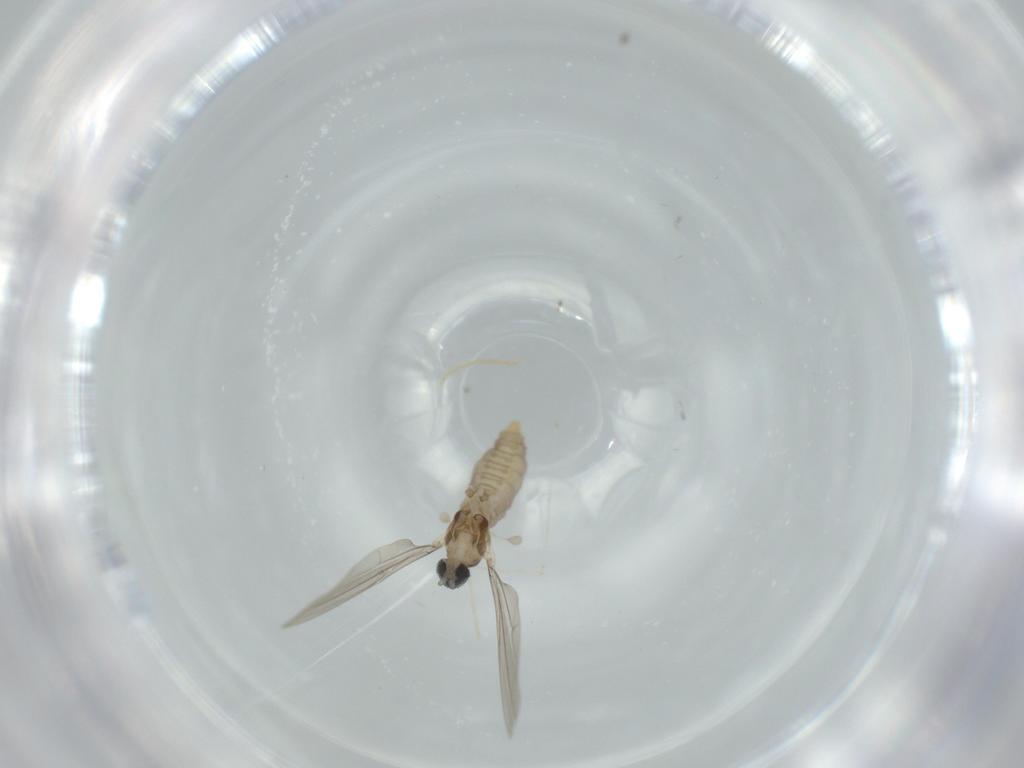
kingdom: Animalia
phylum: Arthropoda
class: Insecta
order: Diptera
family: Cecidomyiidae
